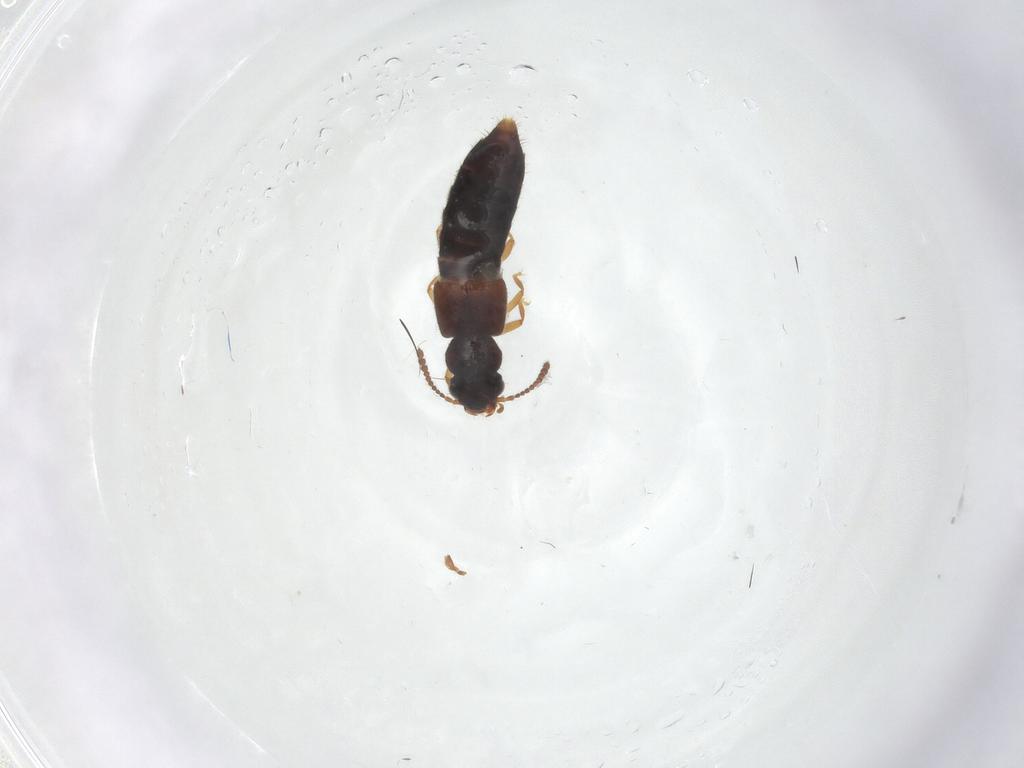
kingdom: Animalia
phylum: Arthropoda
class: Insecta
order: Coleoptera
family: Staphylinidae
